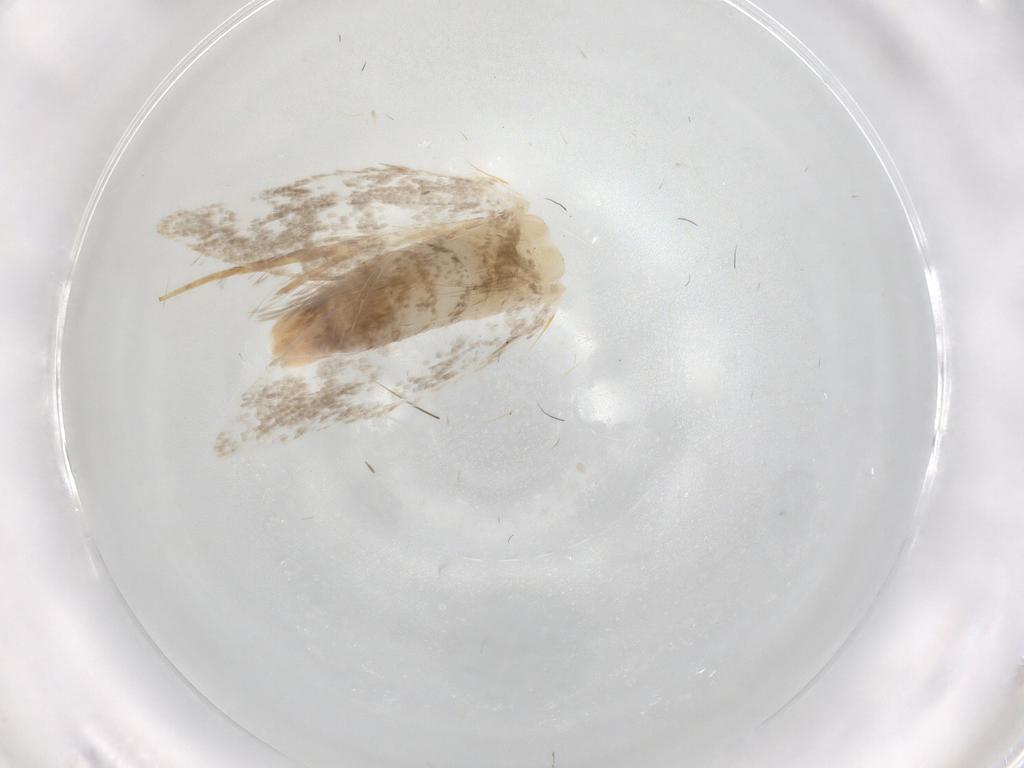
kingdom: Animalia
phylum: Arthropoda
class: Insecta
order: Lepidoptera
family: Tineidae
